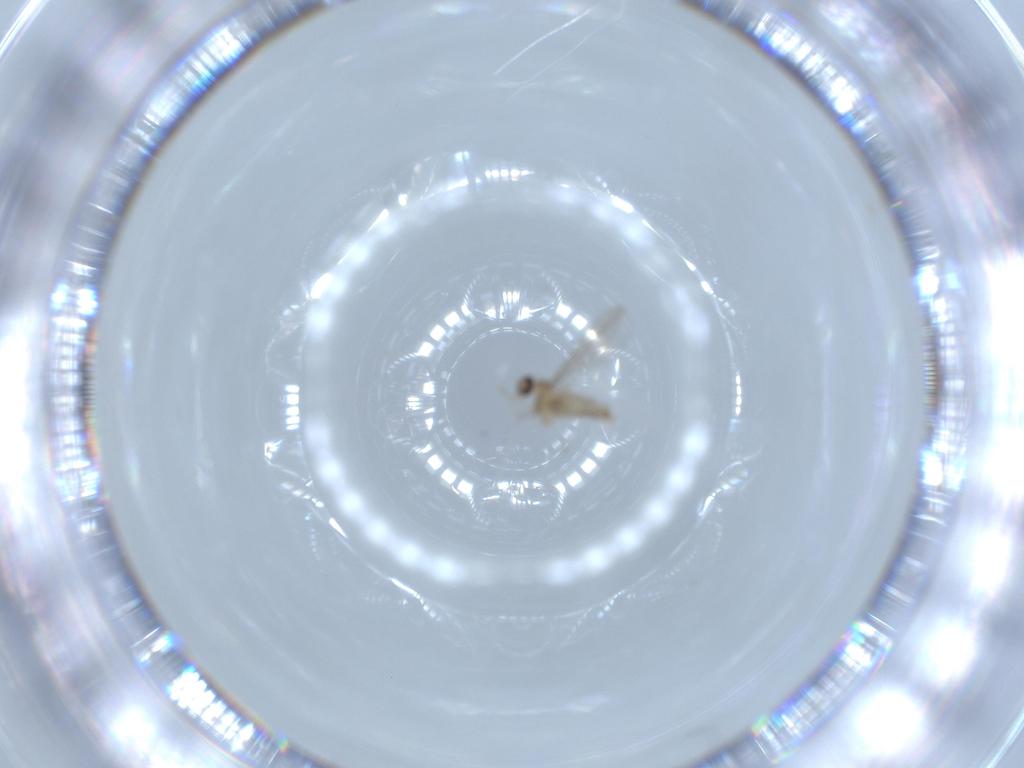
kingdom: Animalia
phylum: Arthropoda
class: Insecta
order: Diptera
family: Cecidomyiidae
